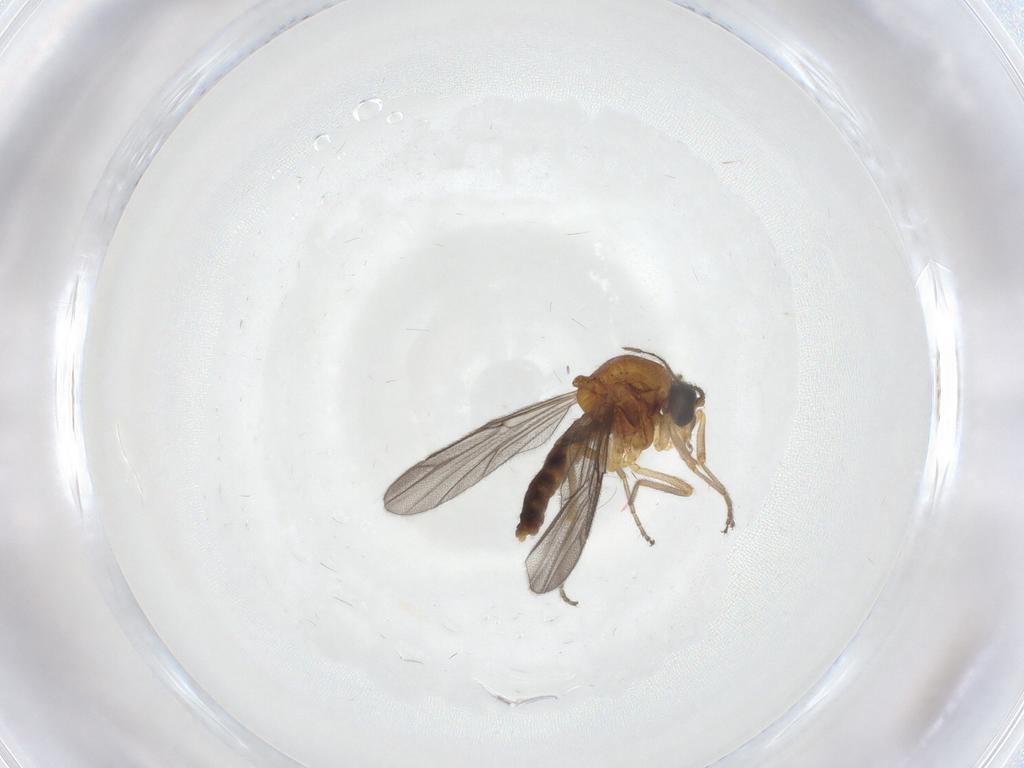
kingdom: Animalia
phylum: Arthropoda
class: Insecta
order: Diptera
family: Ceratopogonidae
